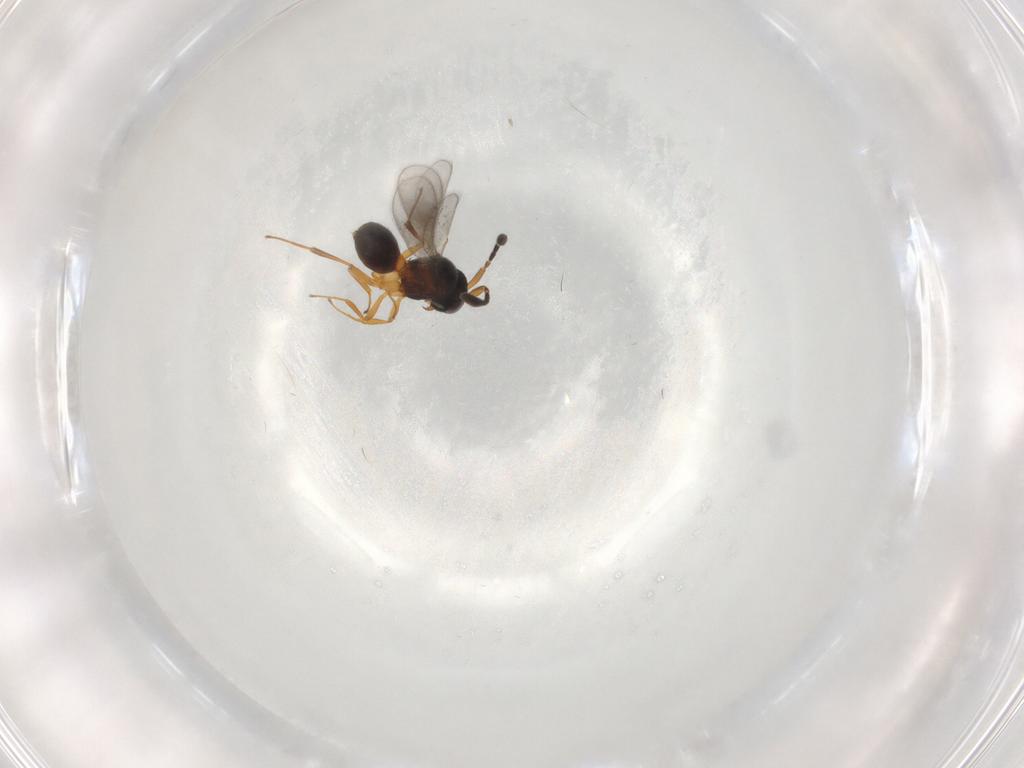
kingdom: Animalia
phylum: Arthropoda
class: Insecta
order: Hymenoptera
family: Scelionidae
